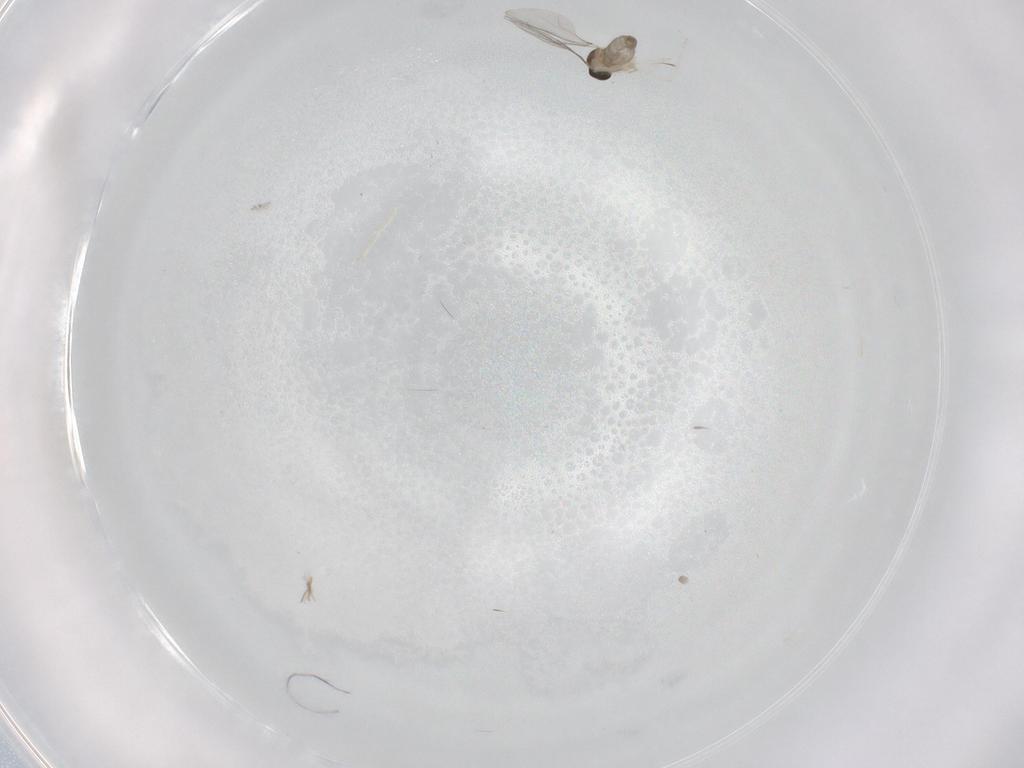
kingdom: Animalia
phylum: Arthropoda
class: Insecta
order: Diptera
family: Cecidomyiidae
